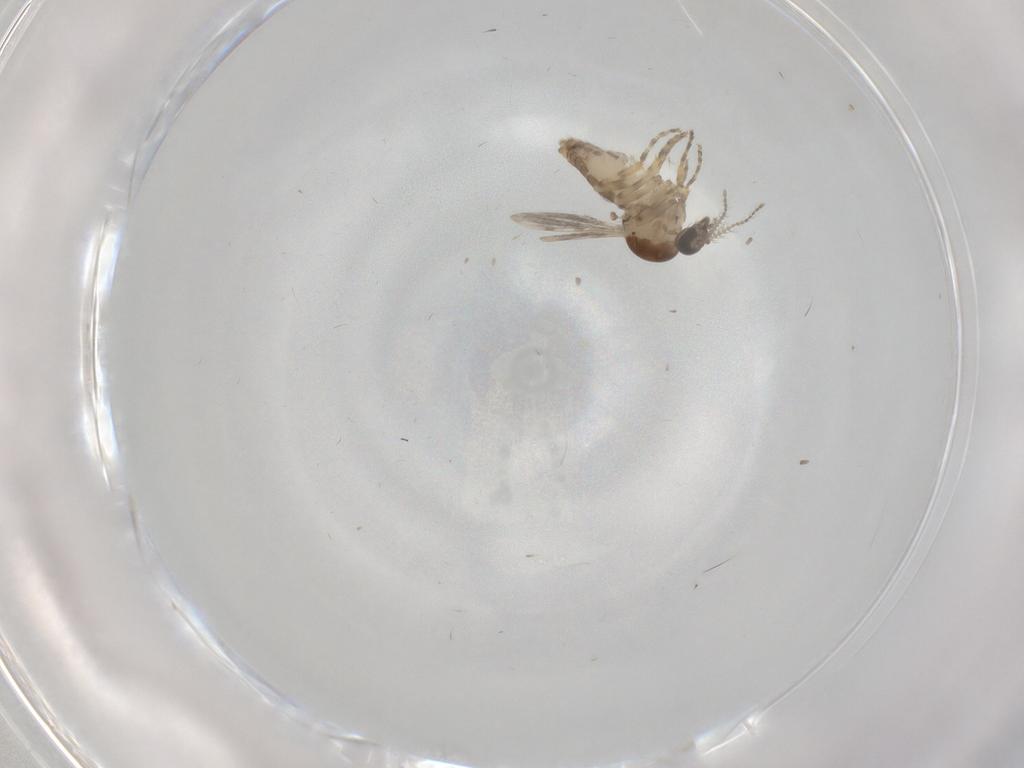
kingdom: Animalia
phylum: Arthropoda
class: Insecta
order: Diptera
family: Ceratopogonidae
